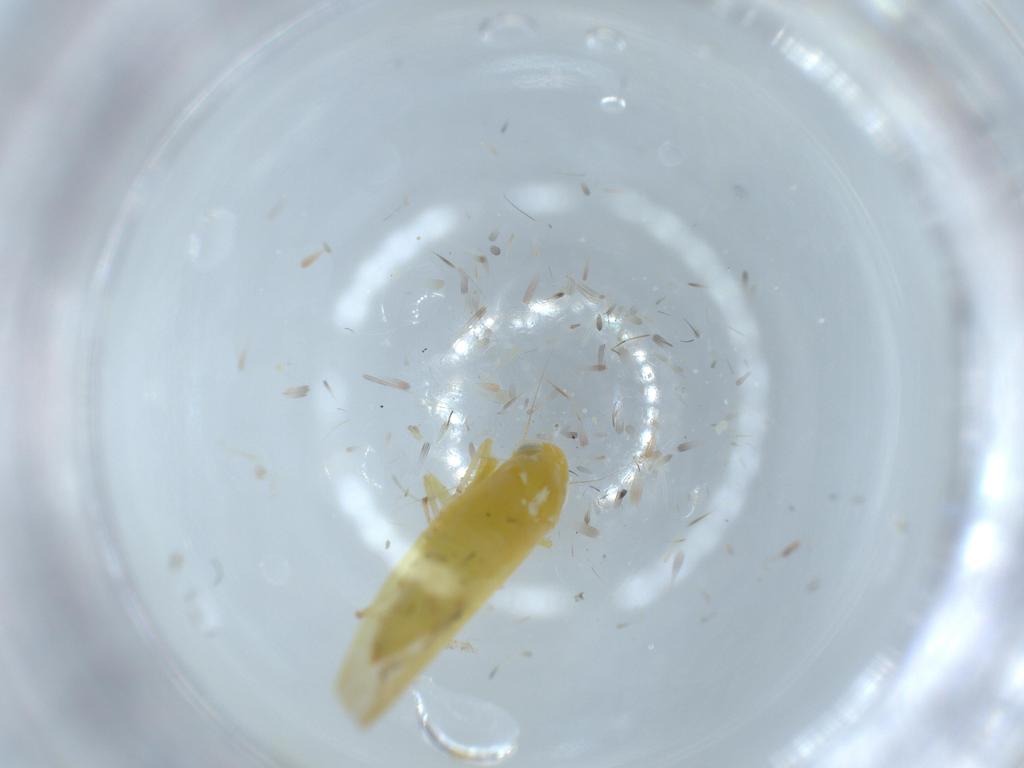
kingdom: Animalia
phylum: Arthropoda
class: Insecta
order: Hemiptera
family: Cicadellidae
